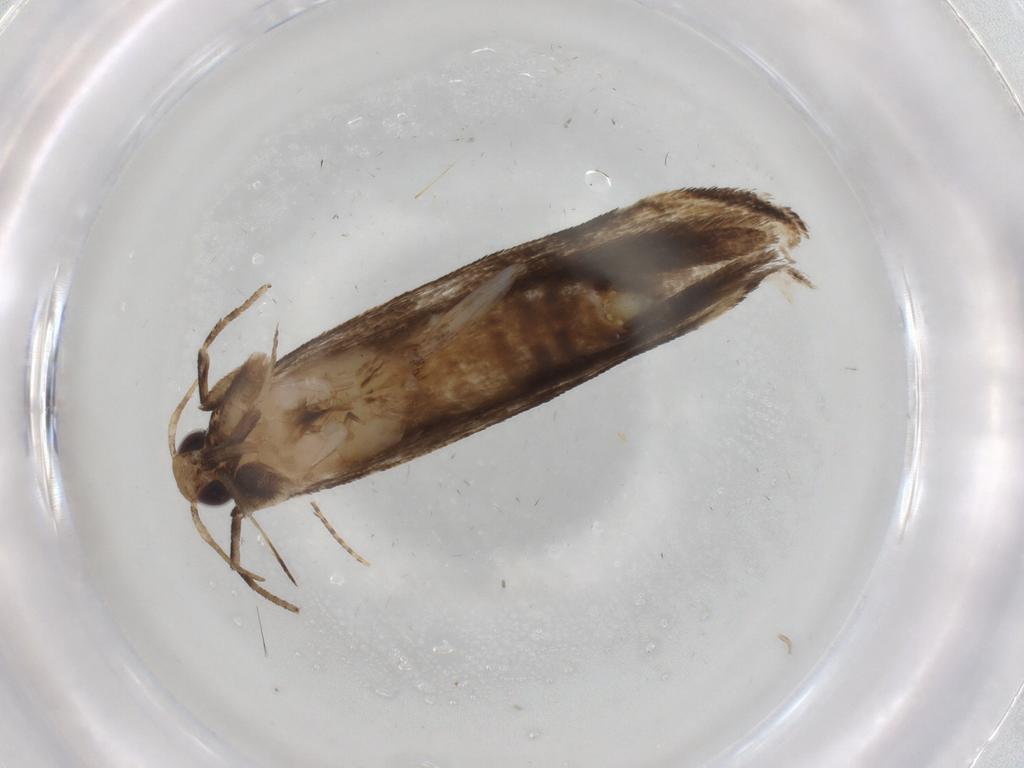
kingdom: Animalia
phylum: Arthropoda
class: Insecta
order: Lepidoptera
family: Gelechiidae
